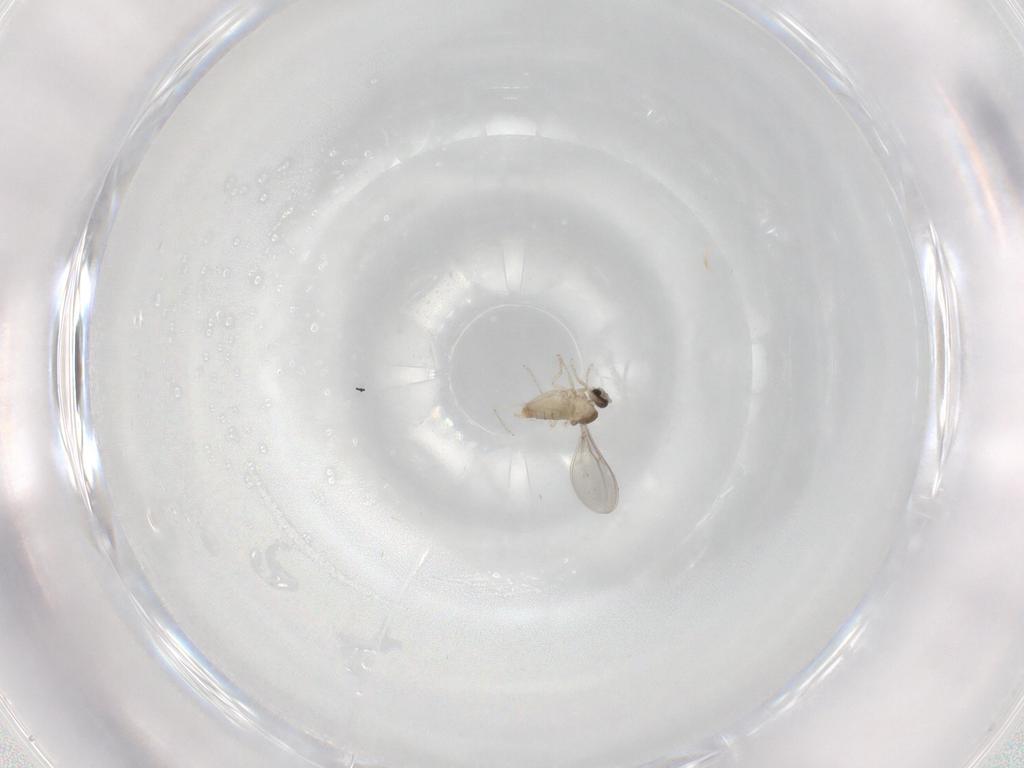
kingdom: Animalia
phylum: Arthropoda
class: Insecta
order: Diptera
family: Cecidomyiidae
